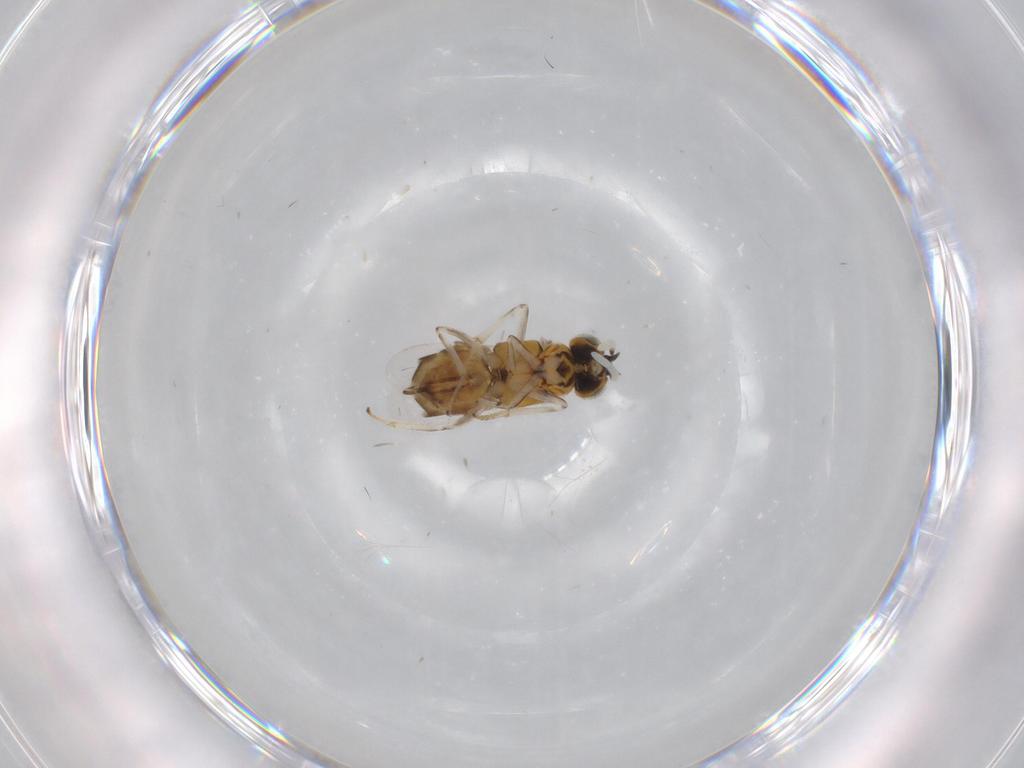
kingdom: Animalia
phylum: Arthropoda
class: Insecta
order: Hymenoptera
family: Encyrtidae
